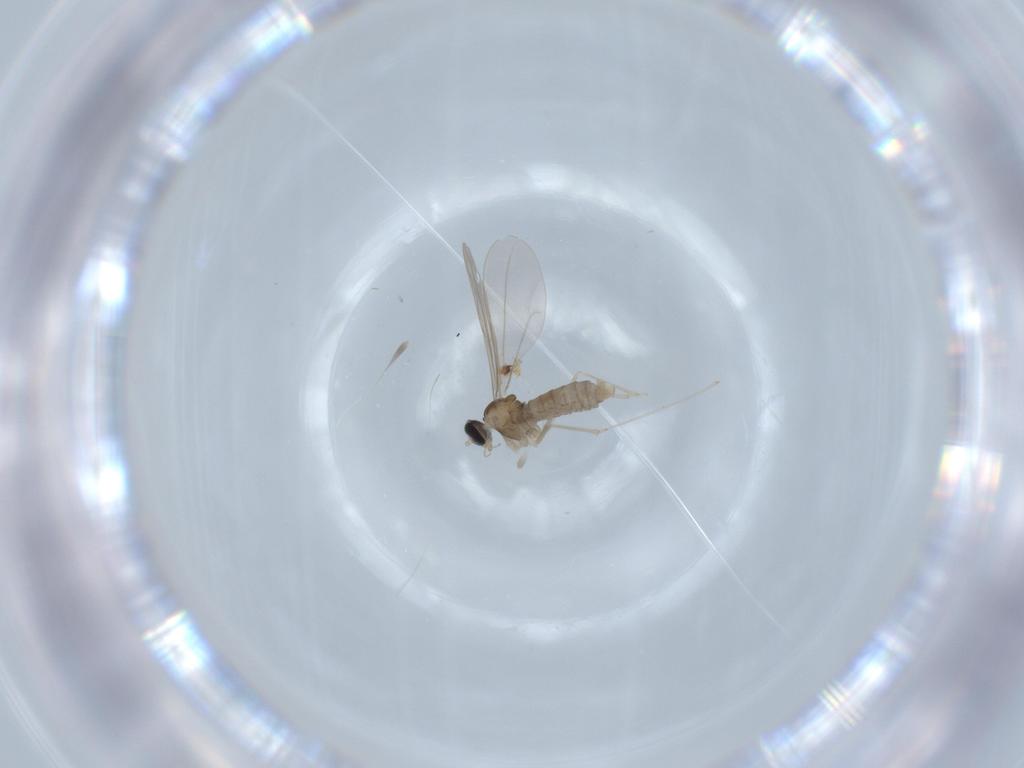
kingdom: Animalia
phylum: Arthropoda
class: Insecta
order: Diptera
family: Cecidomyiidae
